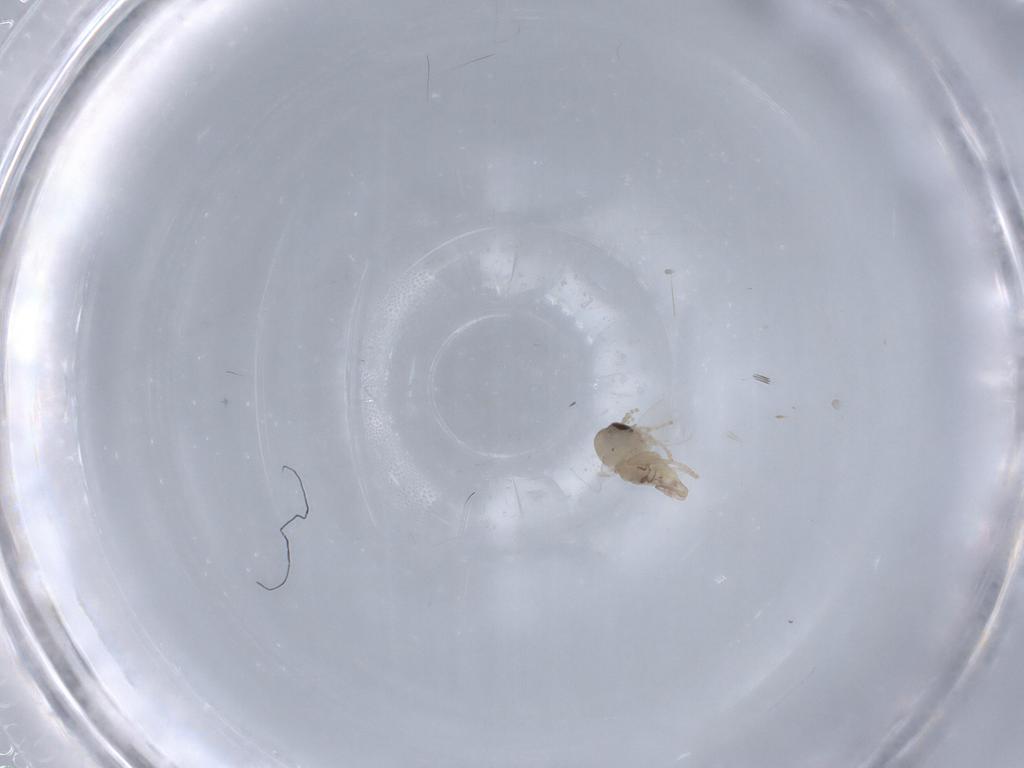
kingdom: Animalia
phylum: Arthropoda
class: Insecta
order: Diptera
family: Psychodidae
